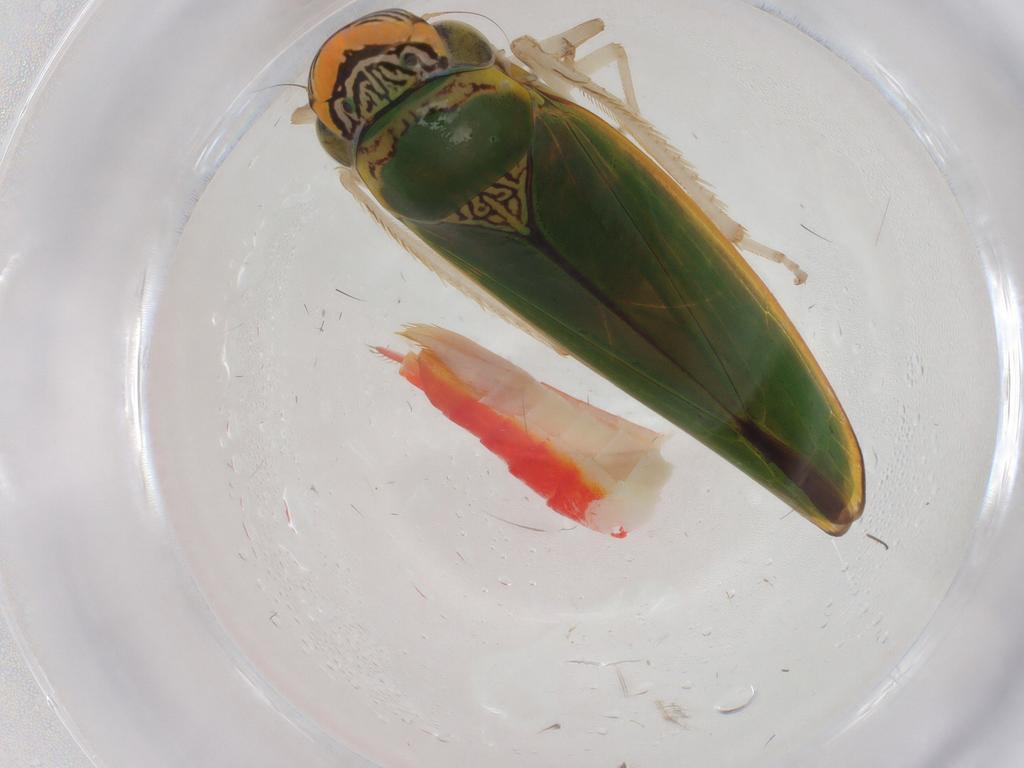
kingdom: Animalia
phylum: Arthropoda
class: Insecta
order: Hemiptera
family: Cicadellidae
